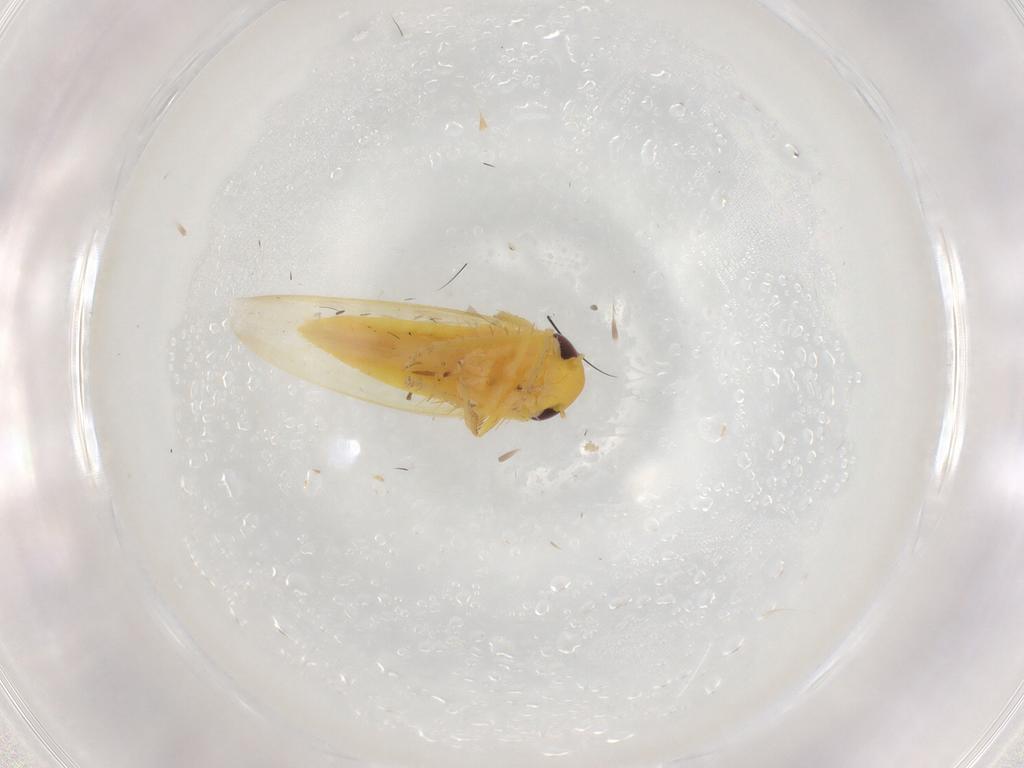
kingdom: Animalia
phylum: Arthropoda
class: Insecta
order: Hemiptera
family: Cicadellidae
